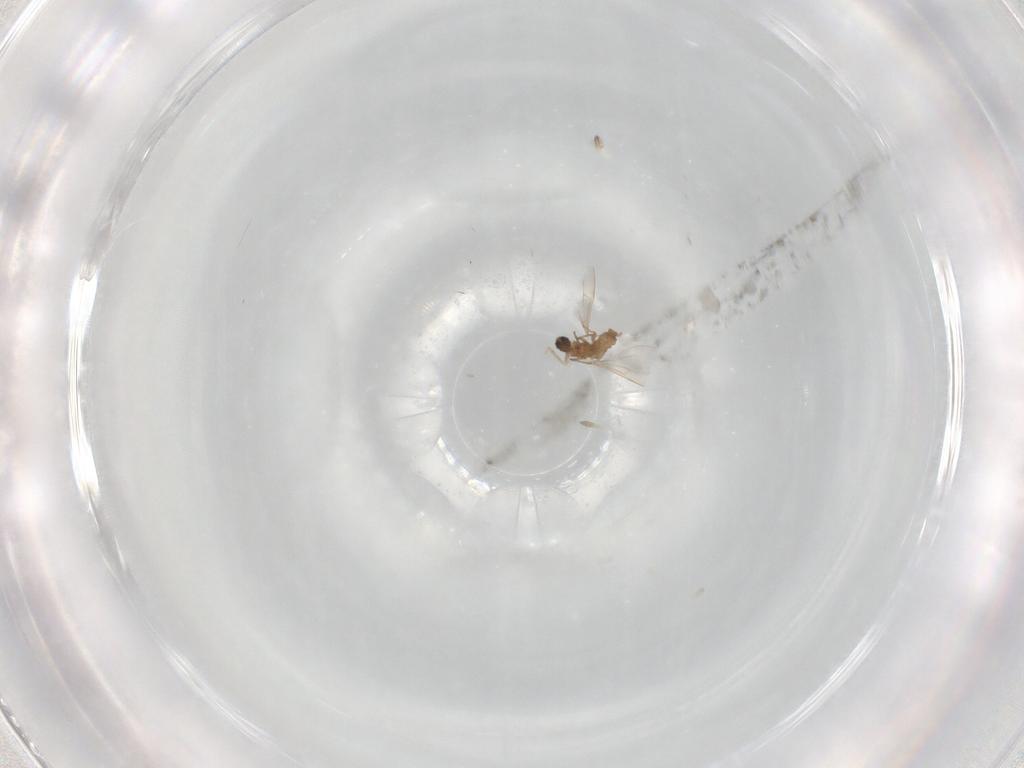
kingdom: Animalia
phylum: Arthropoda
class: Insecta
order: Diptera
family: Cecidomyiidae
